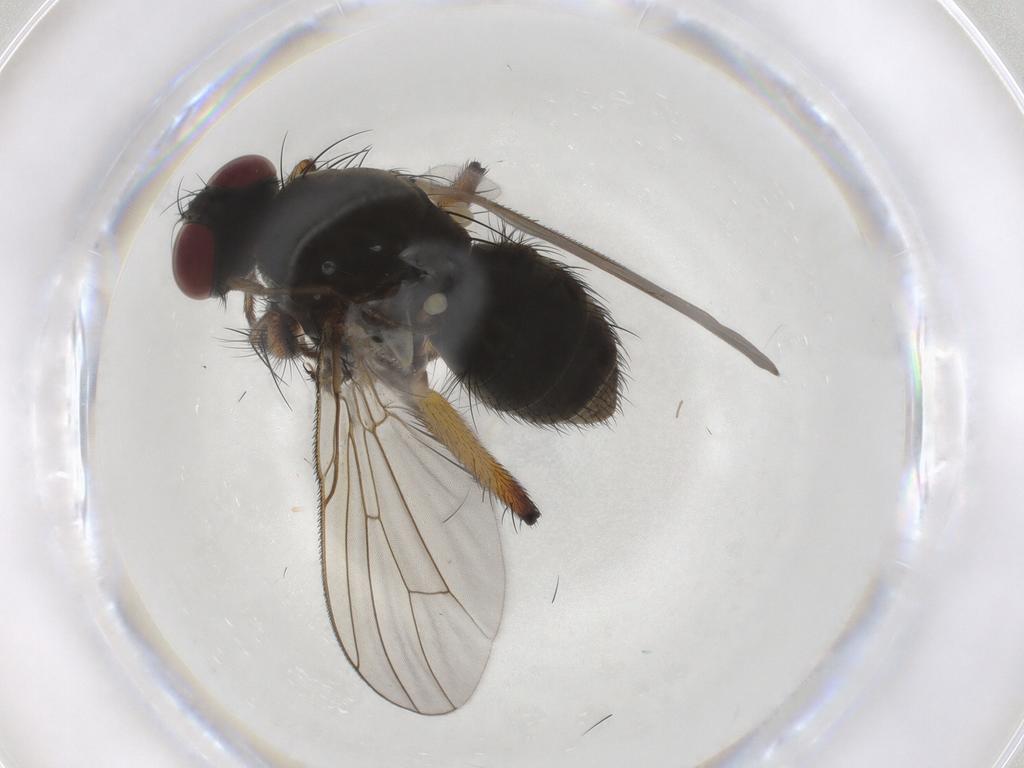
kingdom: Animalia
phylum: Arthropoda
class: Insecta
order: Diptera
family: Muscidae
